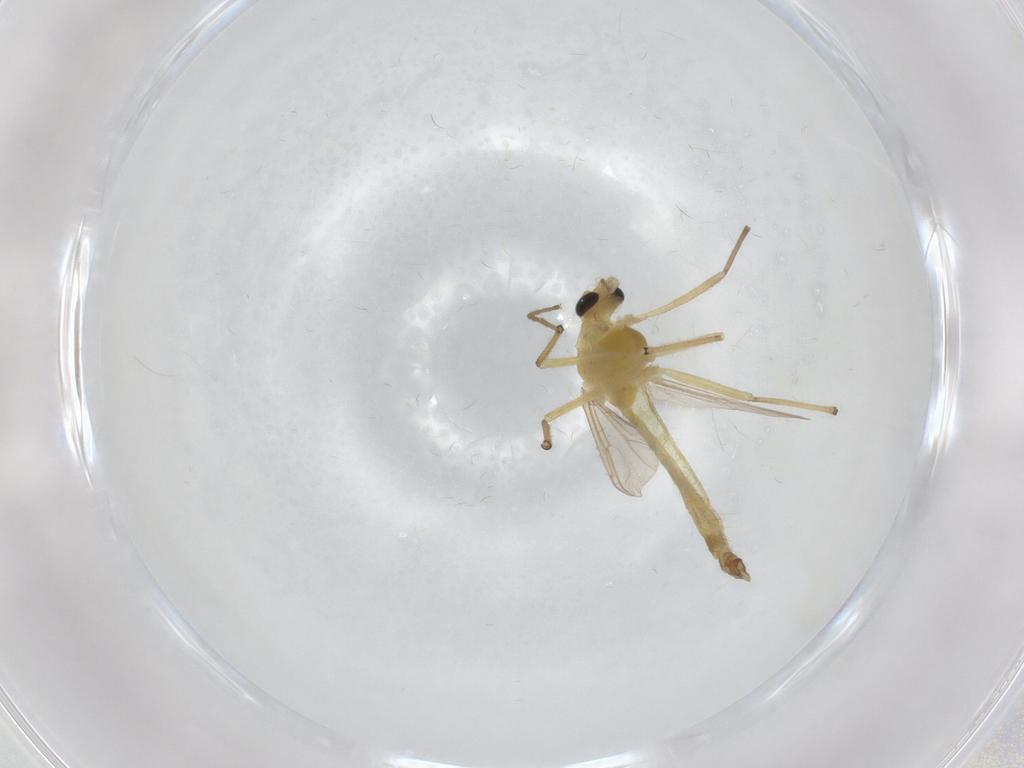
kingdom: Animalia
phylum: Arthropoda
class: Insecta
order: Diptera
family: Chironomidae
